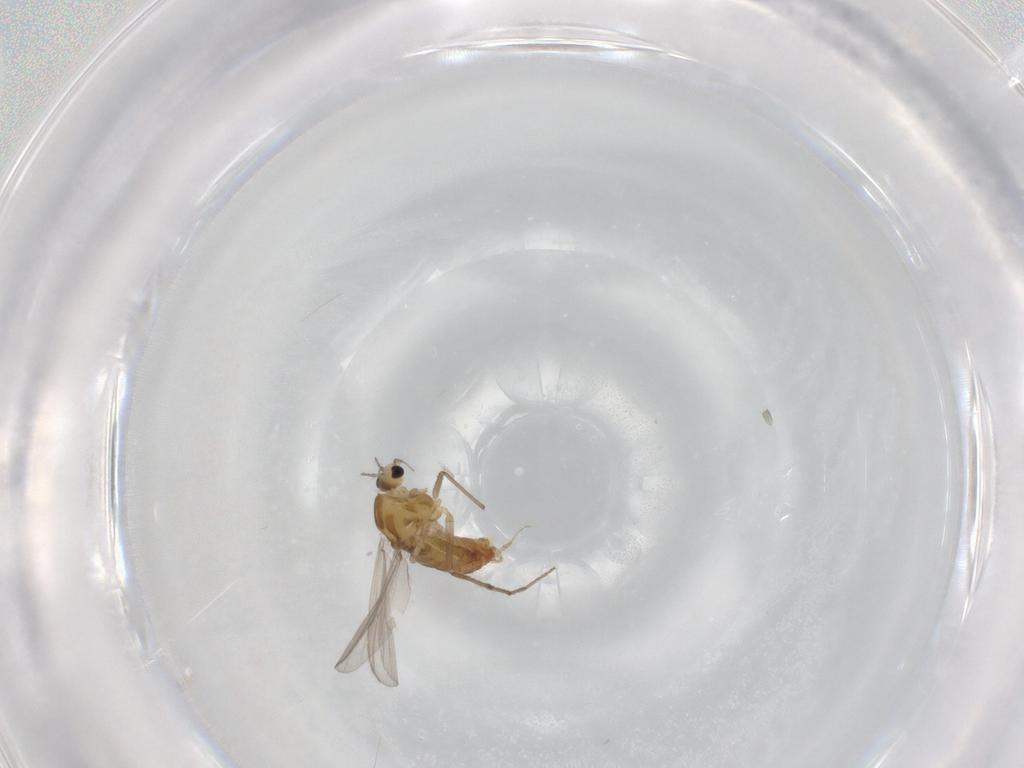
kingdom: Animalia
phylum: Arthropoda
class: Insecta
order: Diptera
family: Chironomidae
